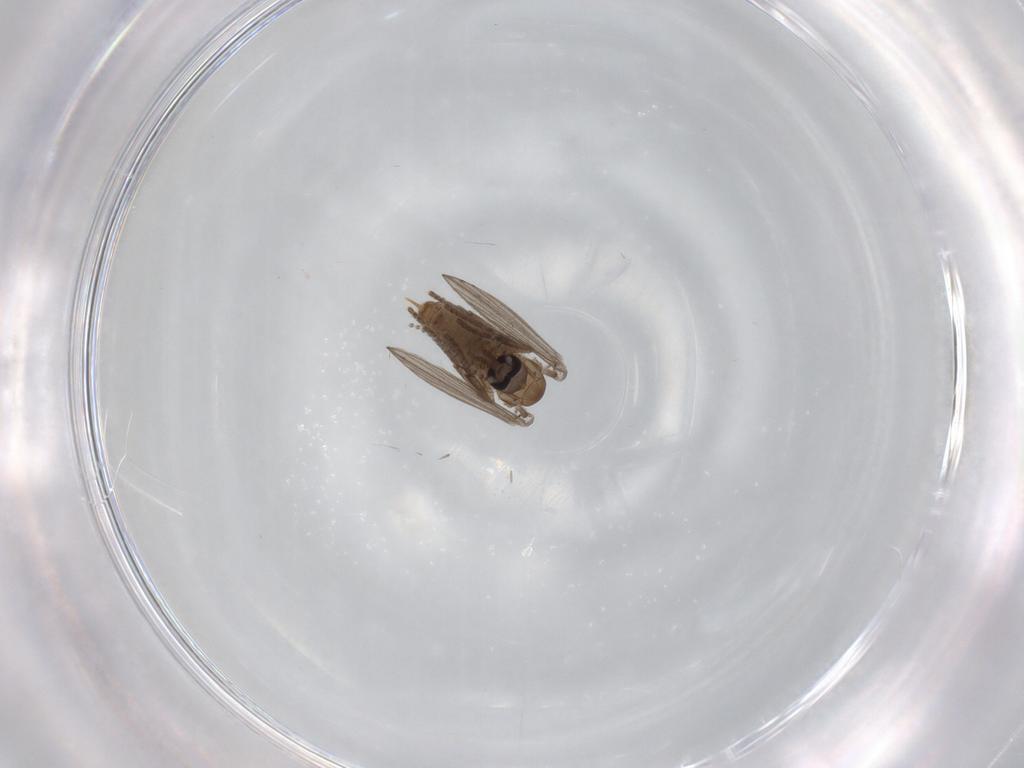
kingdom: Animalia
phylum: Arthropoda
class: Insecta
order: Diptera
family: Psychodidae
